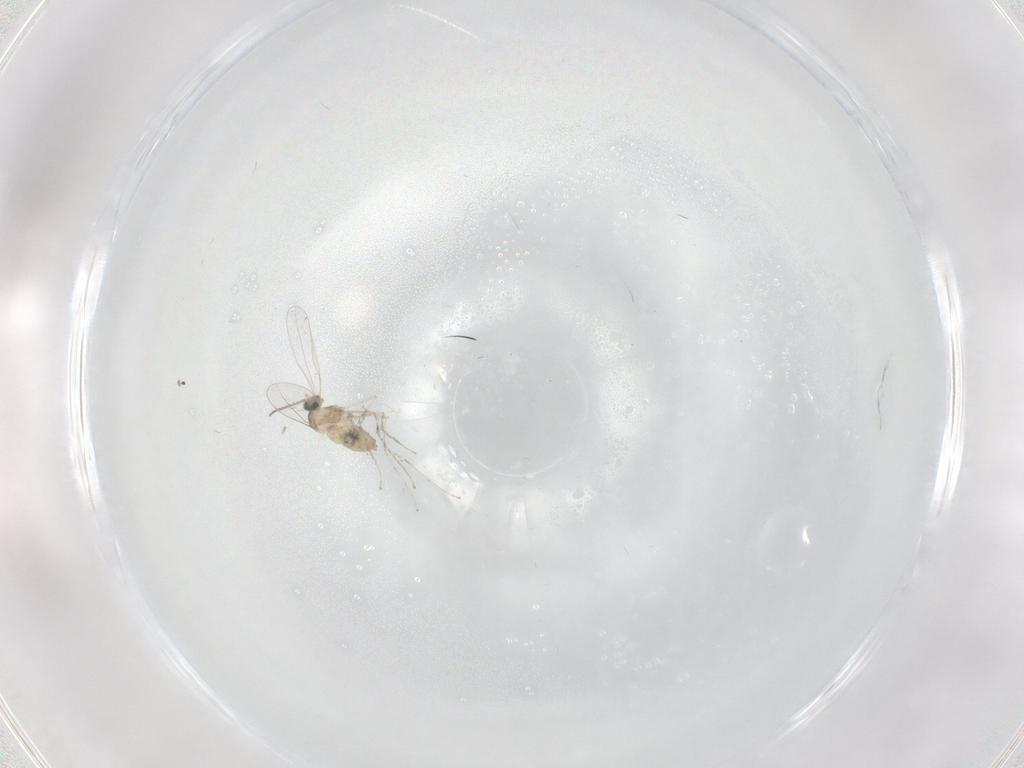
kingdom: Animalia
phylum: Arthropoda
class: Insecta
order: Diptera
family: Cecidomyiidae
